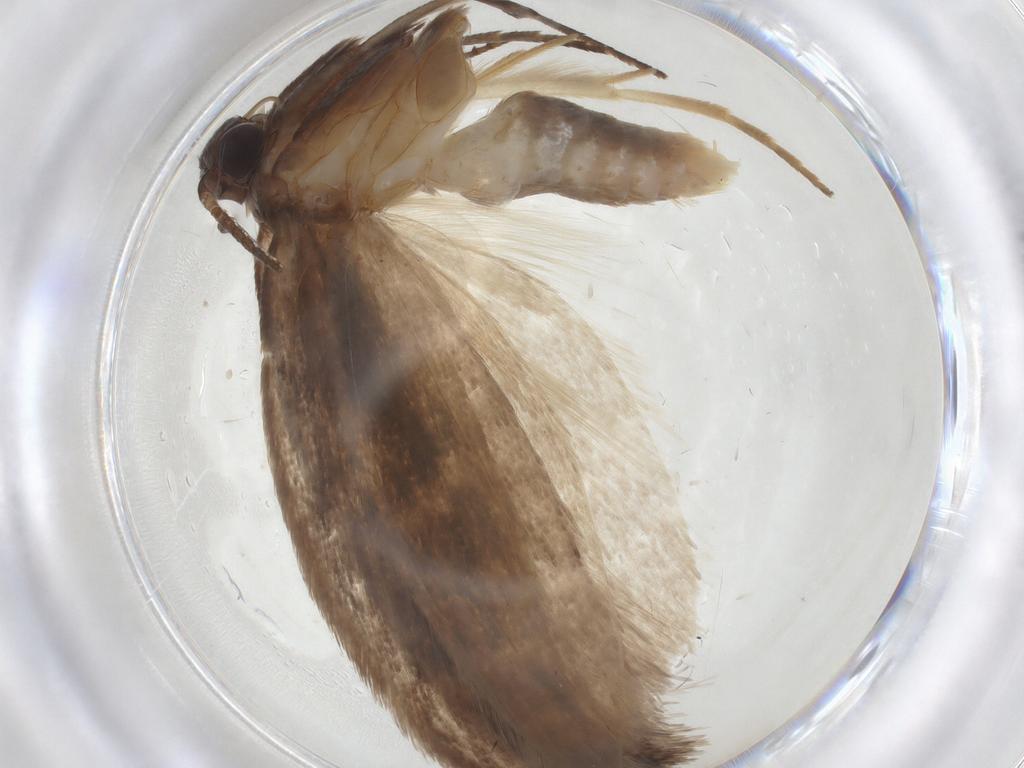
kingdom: Animalia
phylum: Arthropoda
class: Insecta
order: Lepidoptera
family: Roeslerstammiidae
